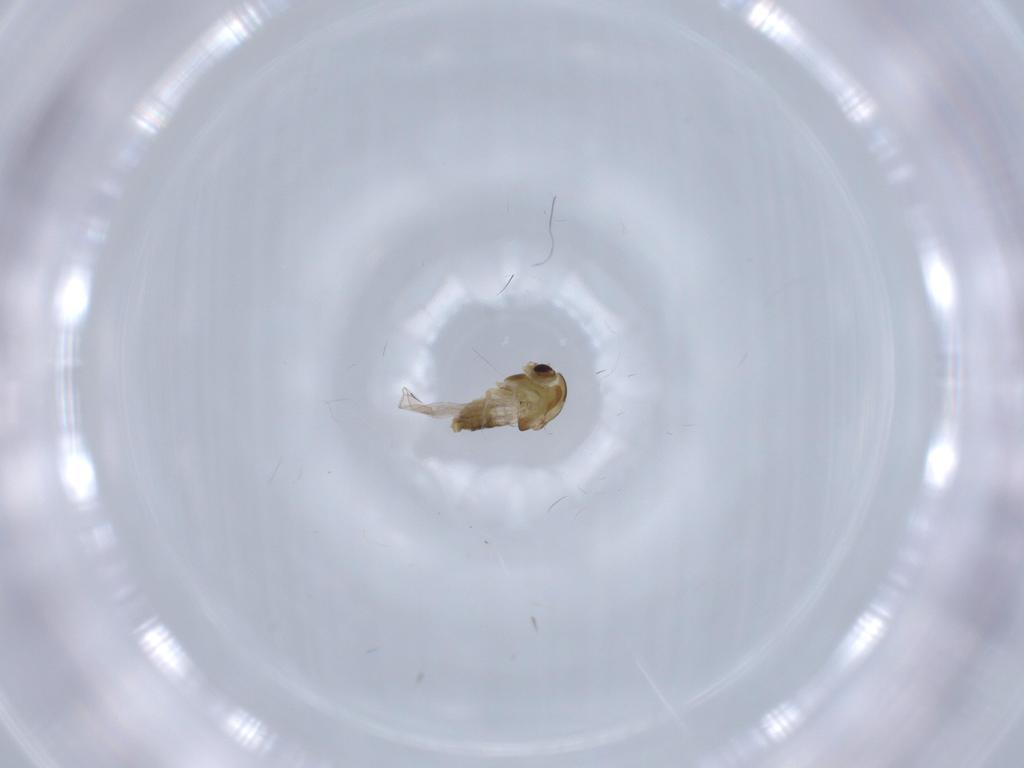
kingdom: Animalia
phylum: Arthropoda
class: Insecta
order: Diptera
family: Chironomidae
